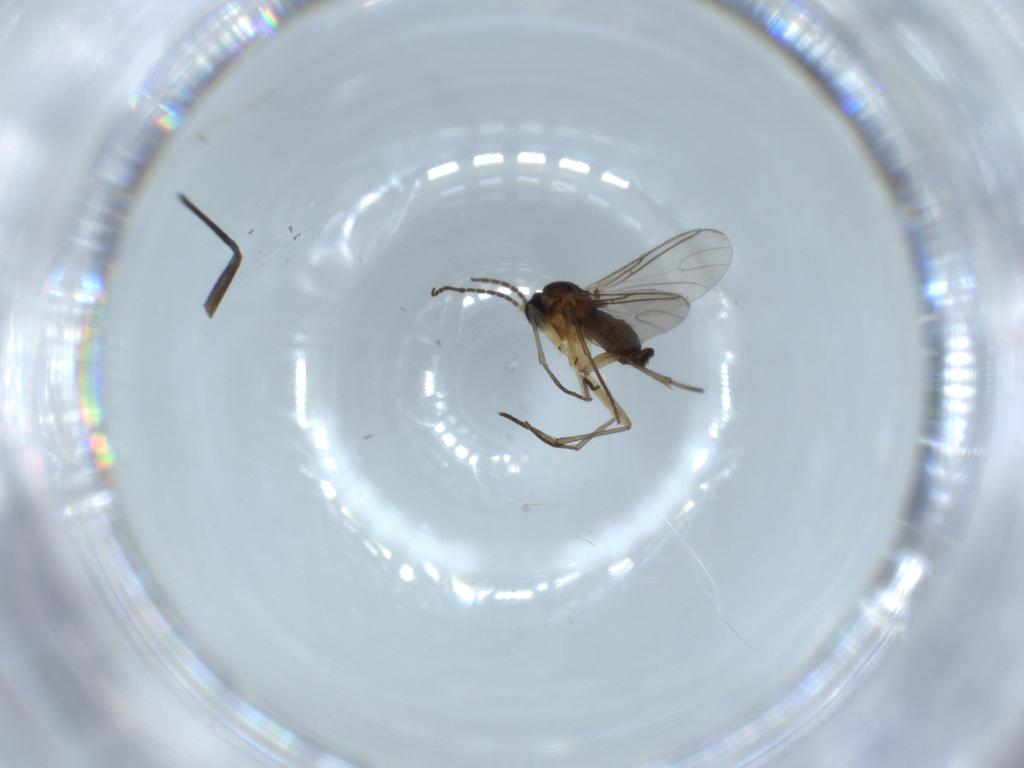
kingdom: Animalia
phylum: Arthropoda
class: Insecta
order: Diptera
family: Sciaridae
